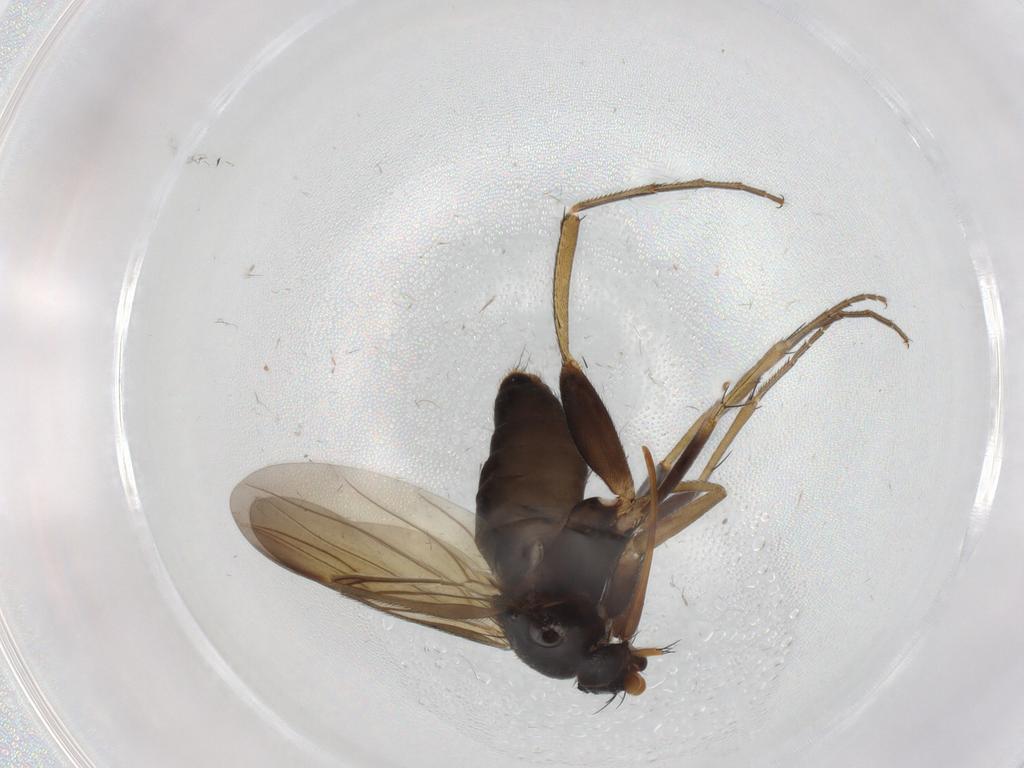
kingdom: Animalia
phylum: Arthropoda
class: Insecta
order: Diptera
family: Phoridae
